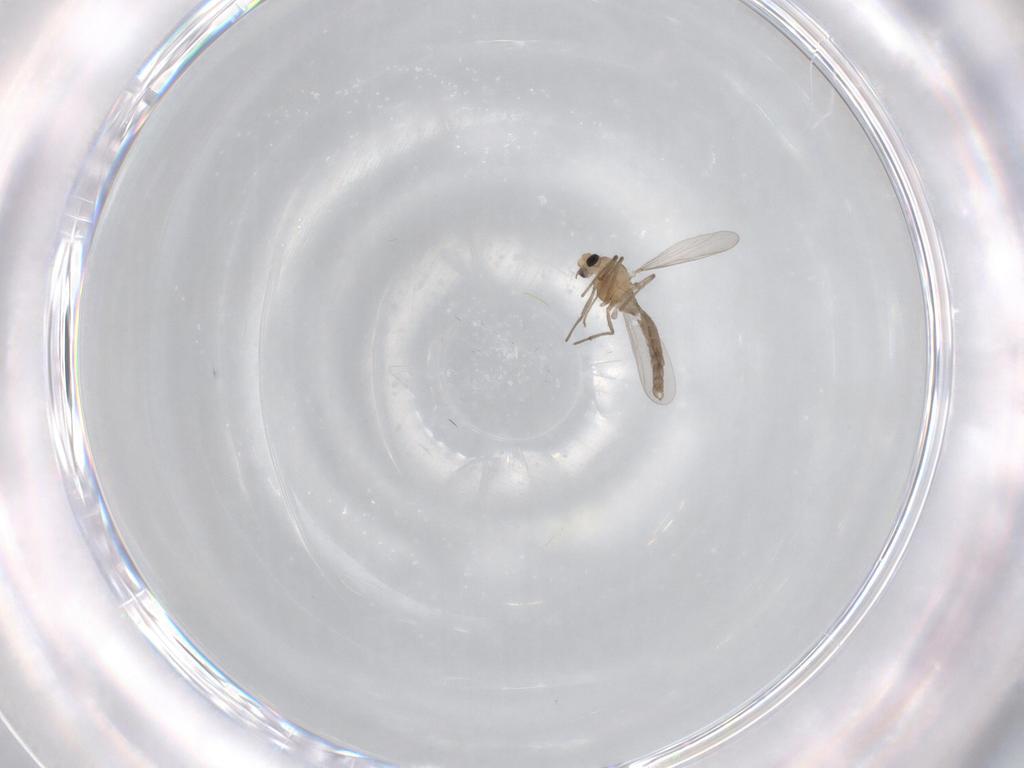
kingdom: Animalia
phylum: Arthropoda
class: Insecta
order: Diptera
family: Chironomidae
